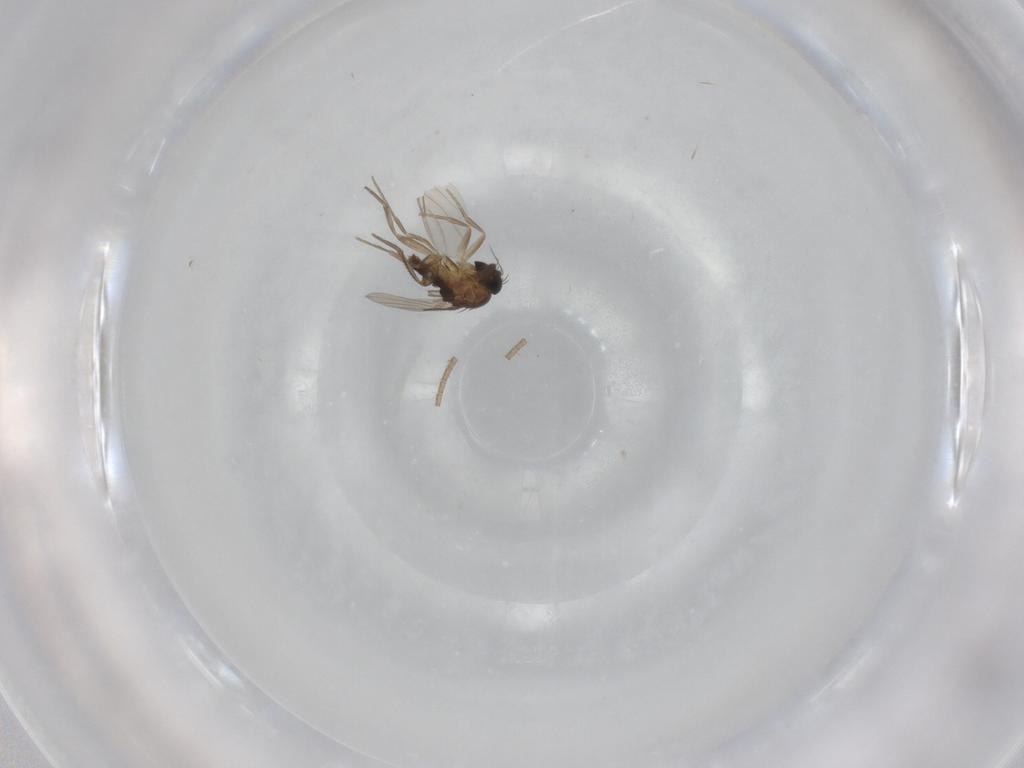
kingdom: Animalia
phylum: Arthropoda
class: Insecta
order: Diptera
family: Phoridae
